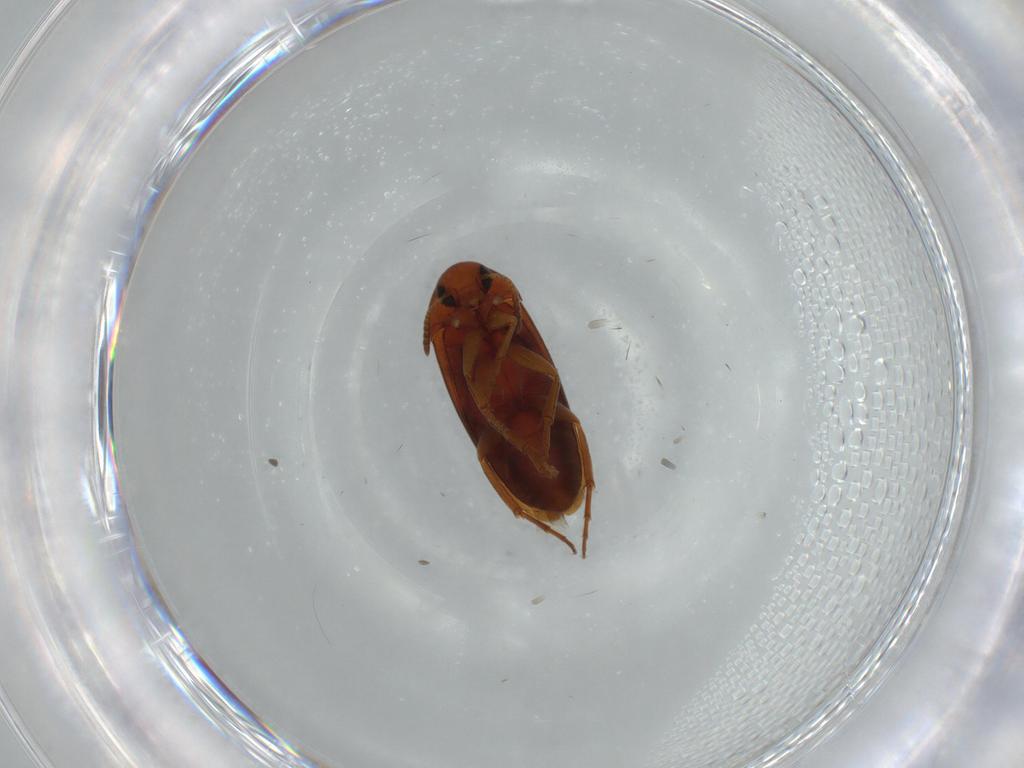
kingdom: Animalia
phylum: Arthropoda
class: Insecta
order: Coleoptera
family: Scraptiidae
